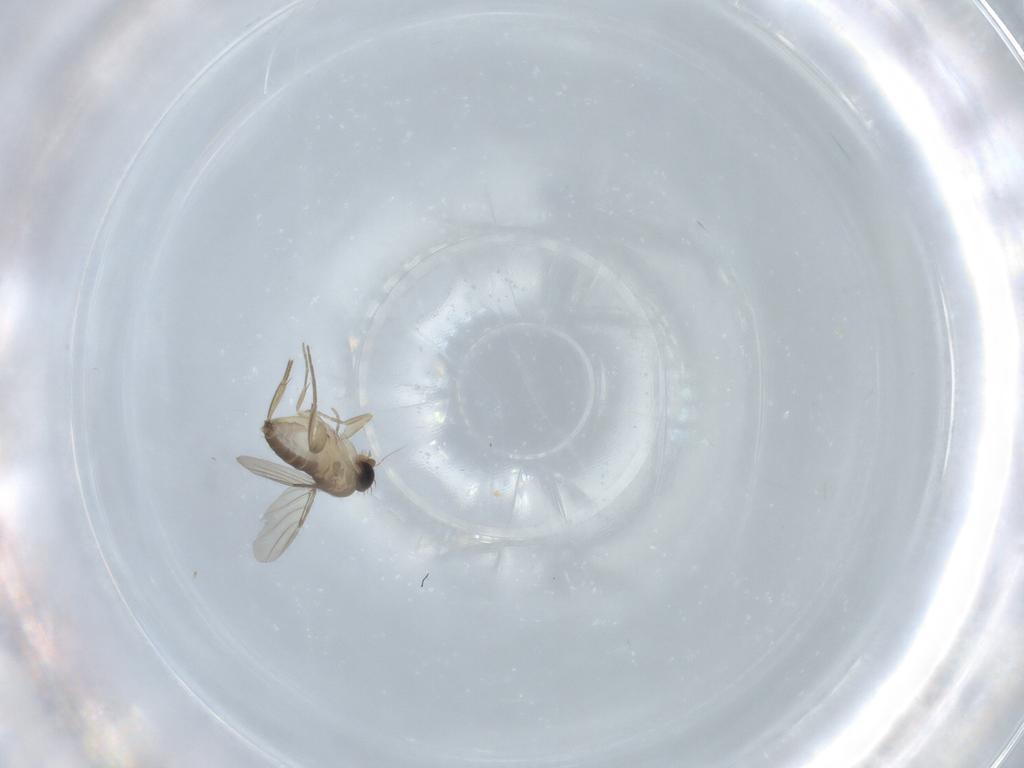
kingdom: Animalia
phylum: Arthropoda
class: Insecta
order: Diptera
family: Phoridae
